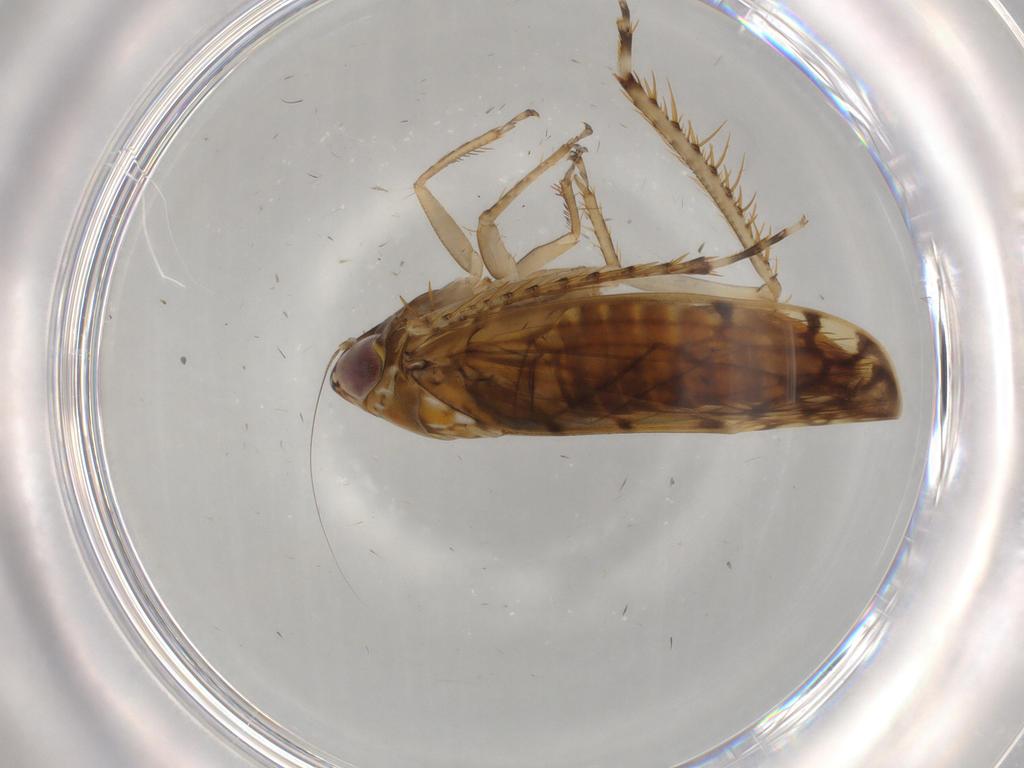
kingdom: Animalia
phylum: Arthropoda
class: Insecta
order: Hemiptera
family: Cicadellidae
